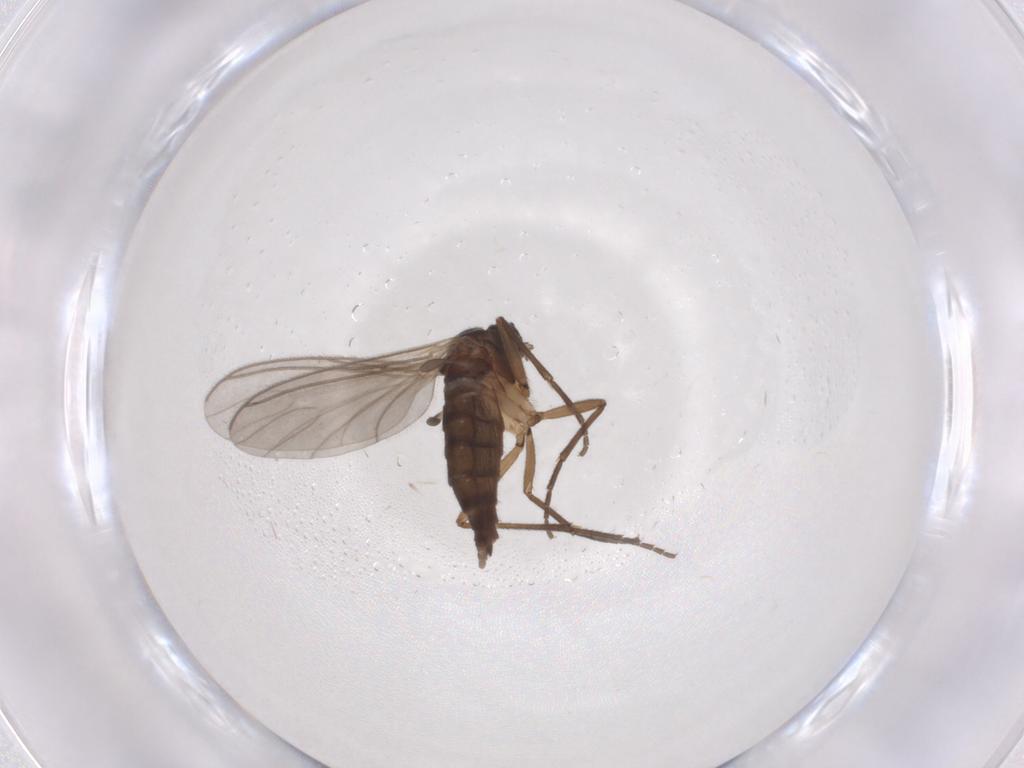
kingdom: Animalia
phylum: Arthropoda
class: Insecta
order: Diptera
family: Sciaridae
